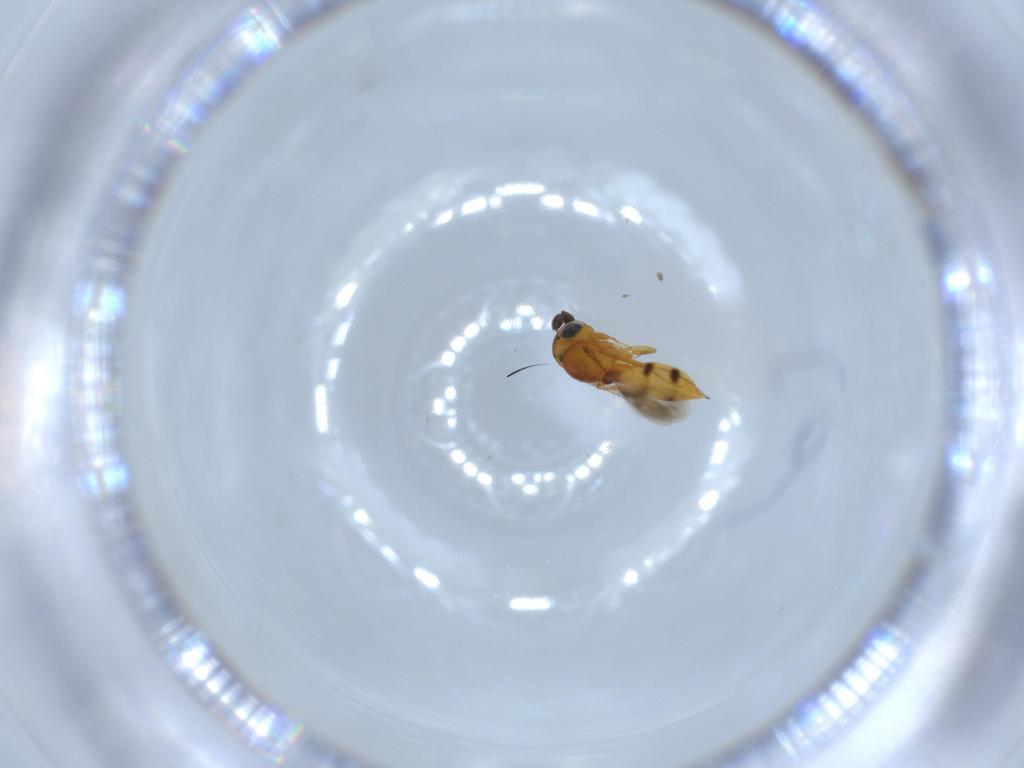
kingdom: Animalia
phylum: Arthropoda
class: Insecta
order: Hymenoptera
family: Scelionidae
